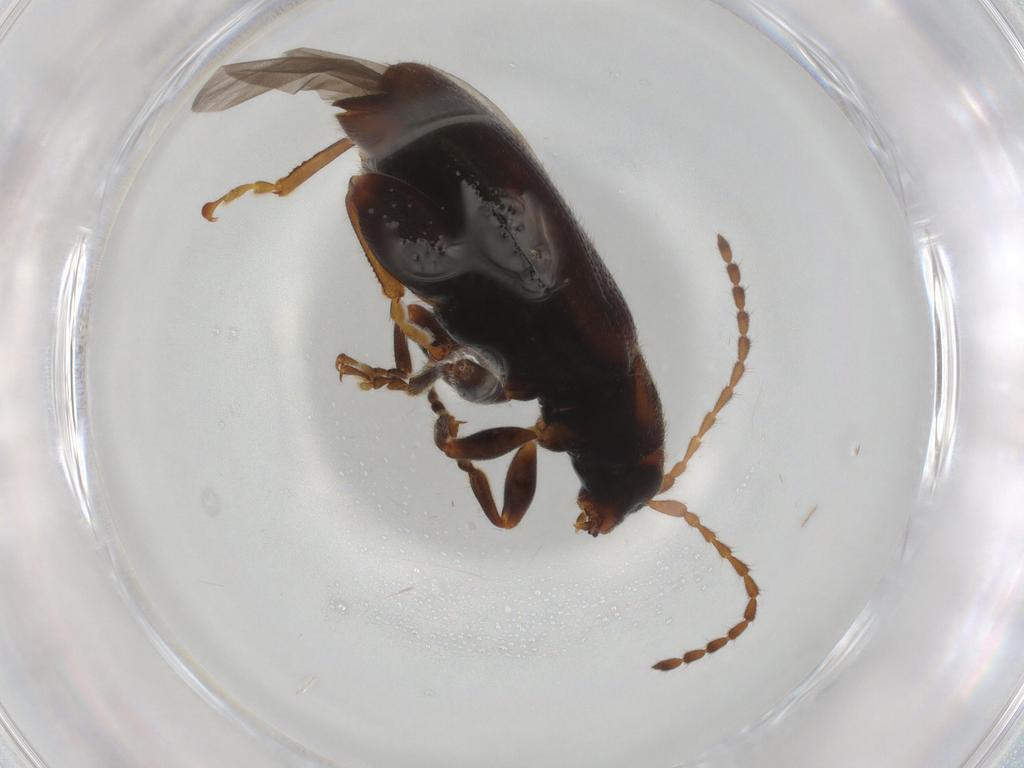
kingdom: Animalia
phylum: Arthropoda
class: Insecta
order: Coleoptera
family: Chrysomelidae
